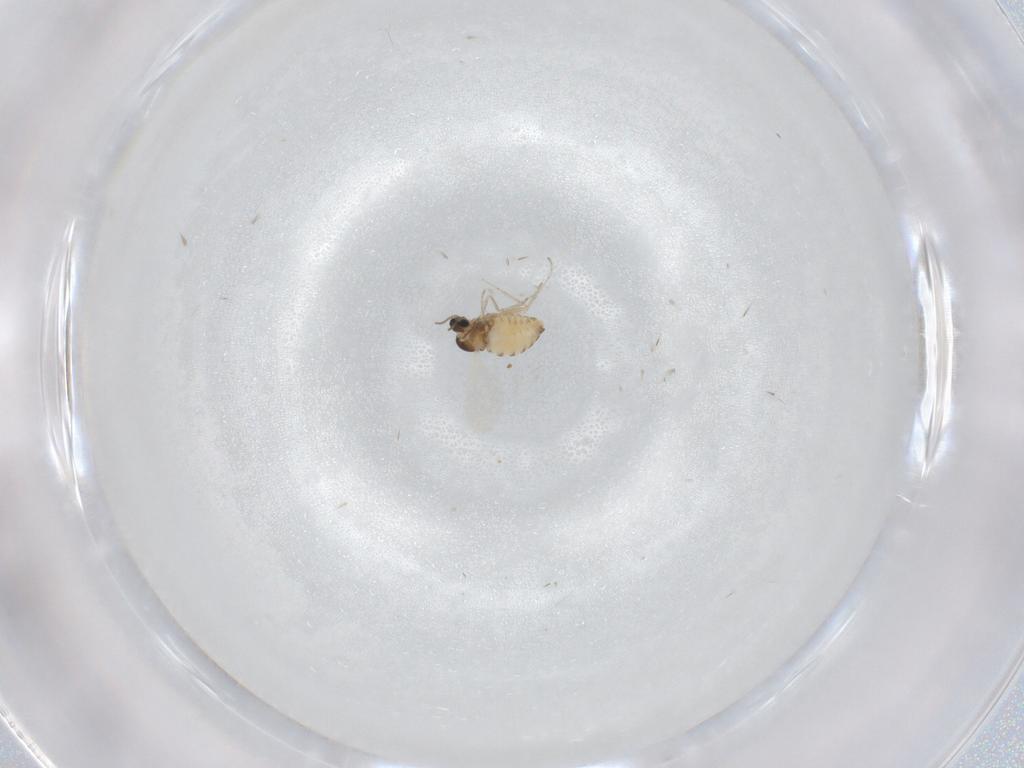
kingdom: Animalia
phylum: Arthropoda
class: Insecta
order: Diptera
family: Cecidomyiidae
